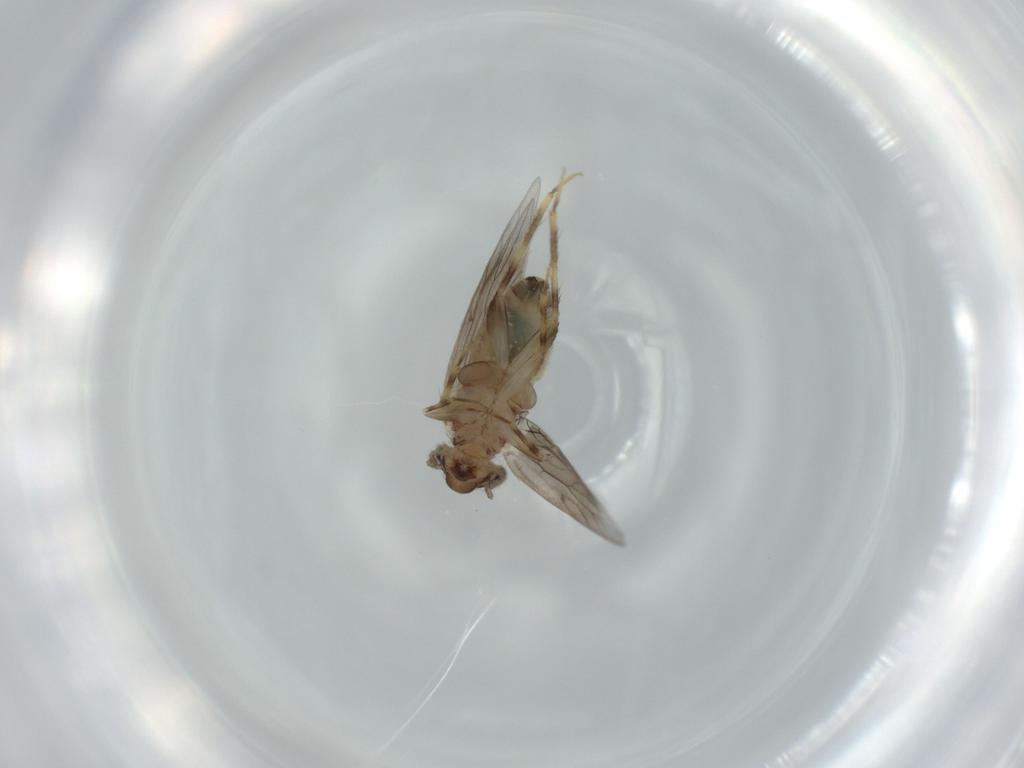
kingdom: Animalia
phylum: Arthropoda
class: Insecta
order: Psocodea
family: Lepidopsocidae
